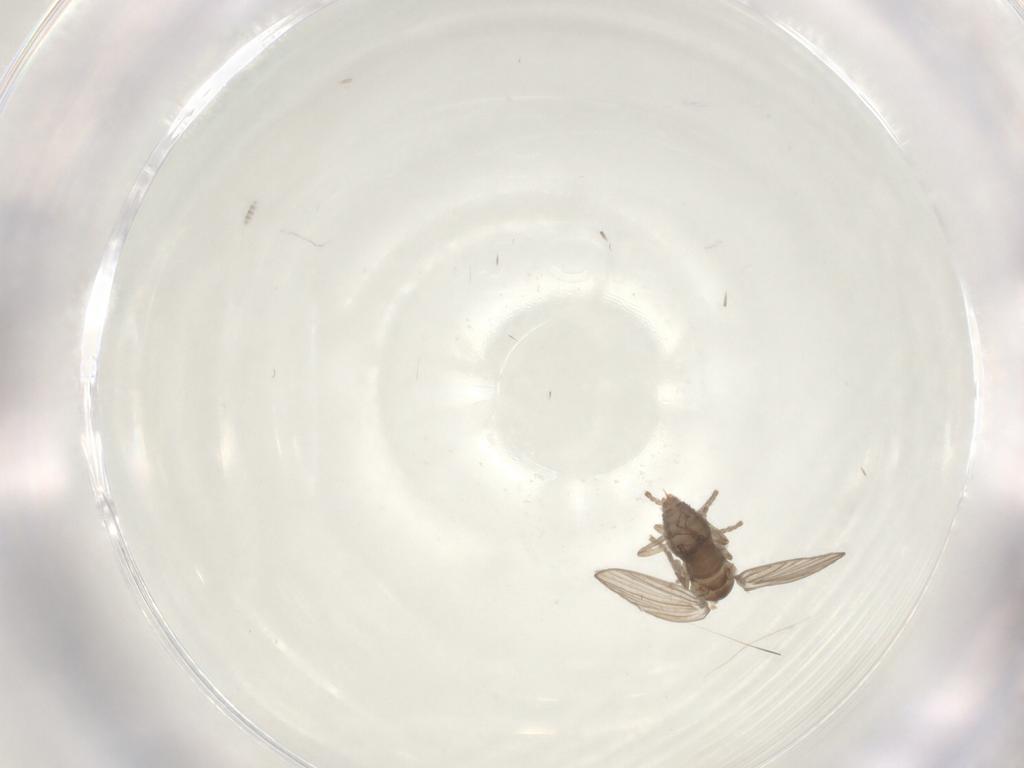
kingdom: Animalia
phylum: Arthropoda
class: Insecta
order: Diptera
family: Psychodidae
